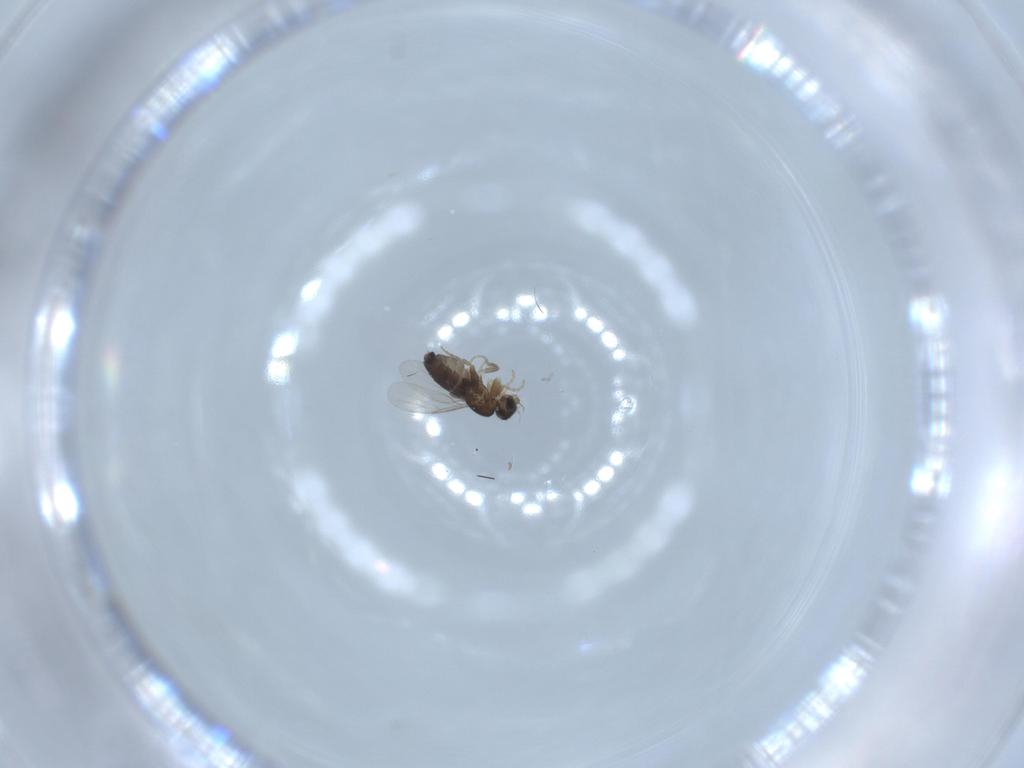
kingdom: Animalia
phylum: Arthropoda
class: Insecta
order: Diptera
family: Phoridae
